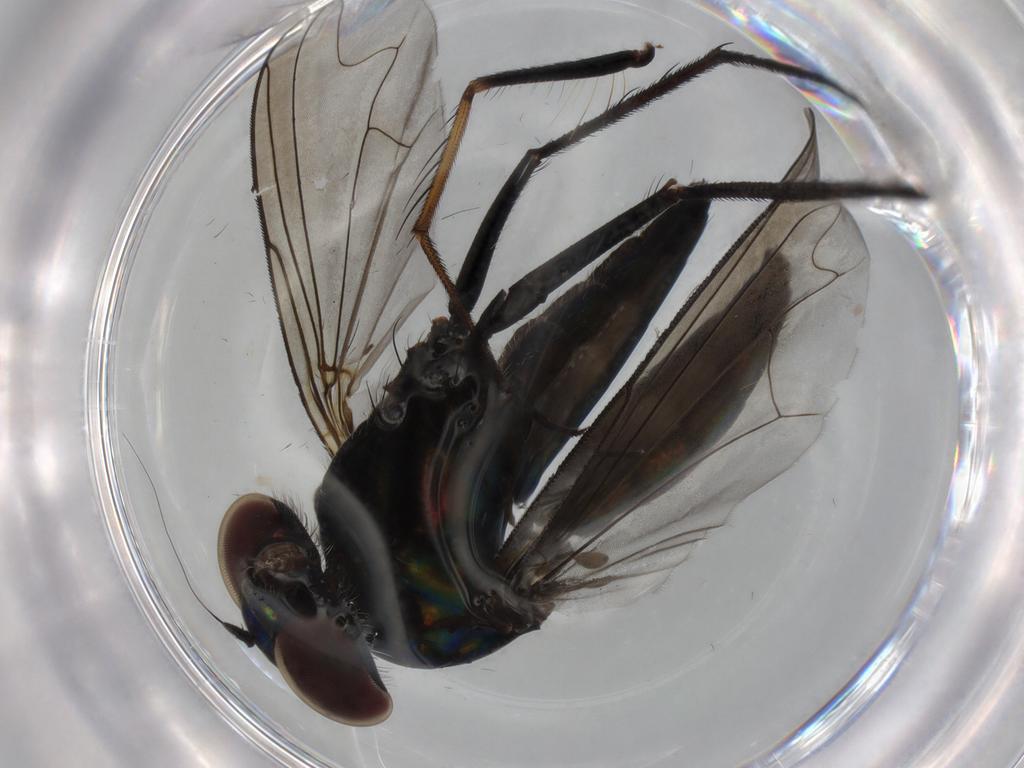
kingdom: Animalia
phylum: Arthropoda
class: Insecta
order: Diptera
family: Dolichopodidae
